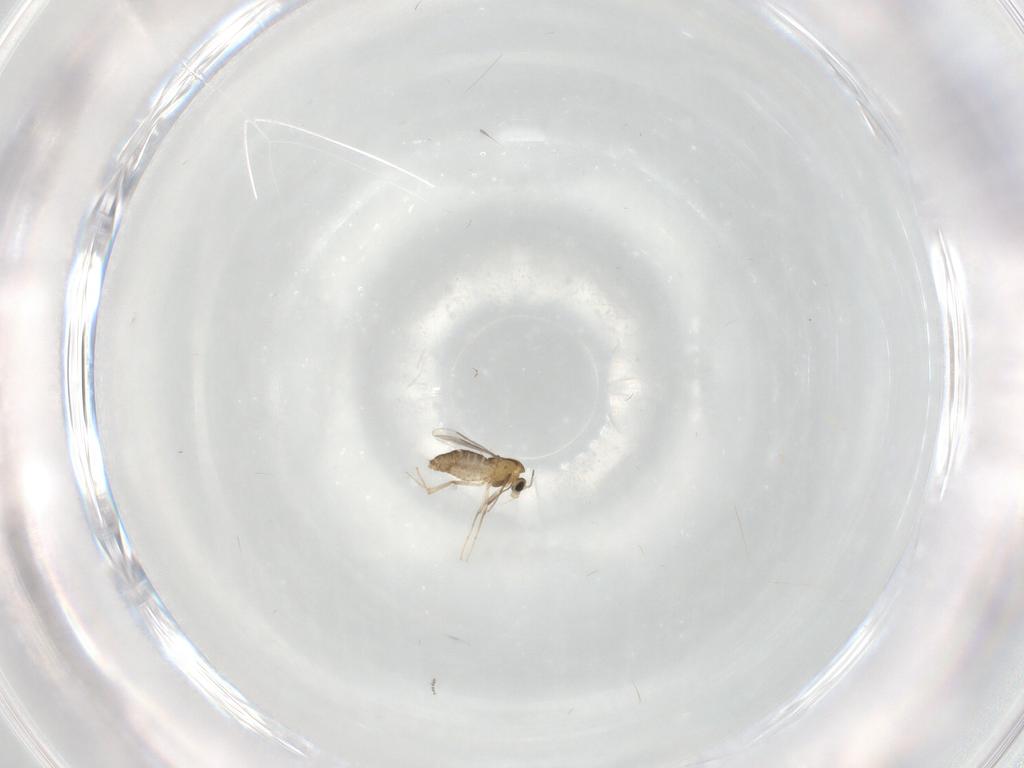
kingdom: Animalia
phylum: Arthropoda
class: Insecta
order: Diptera
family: Chironomidae
